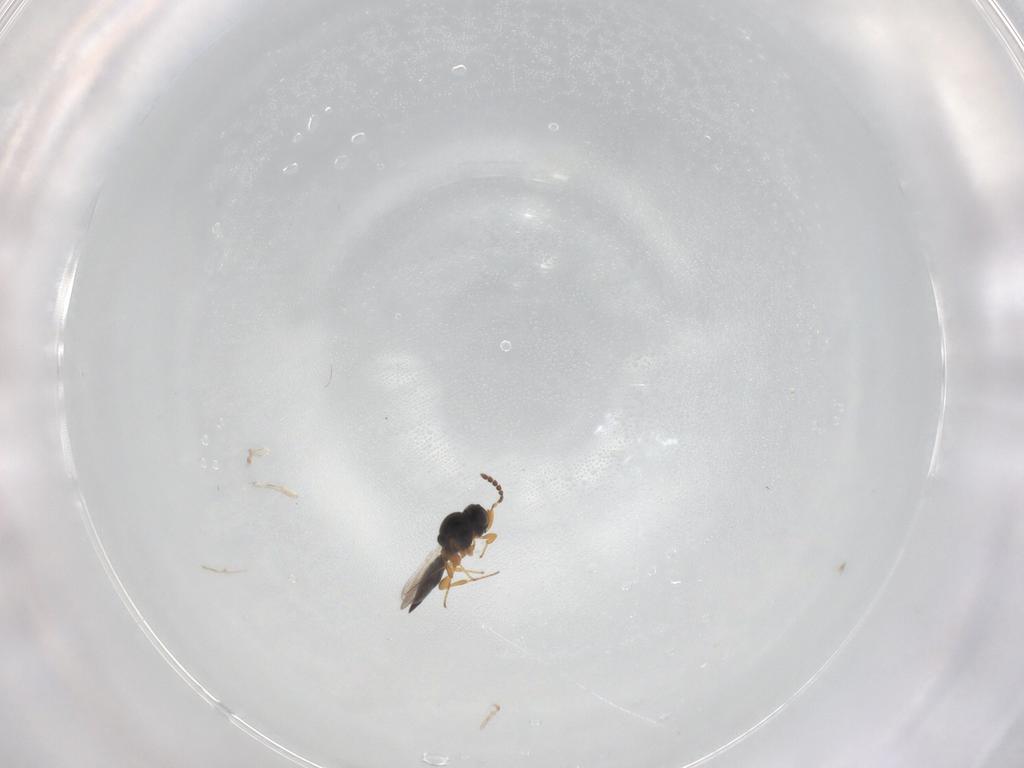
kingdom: Animalia
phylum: Arthropoda
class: Insecta
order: Hymenoptera
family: Platygastridae
